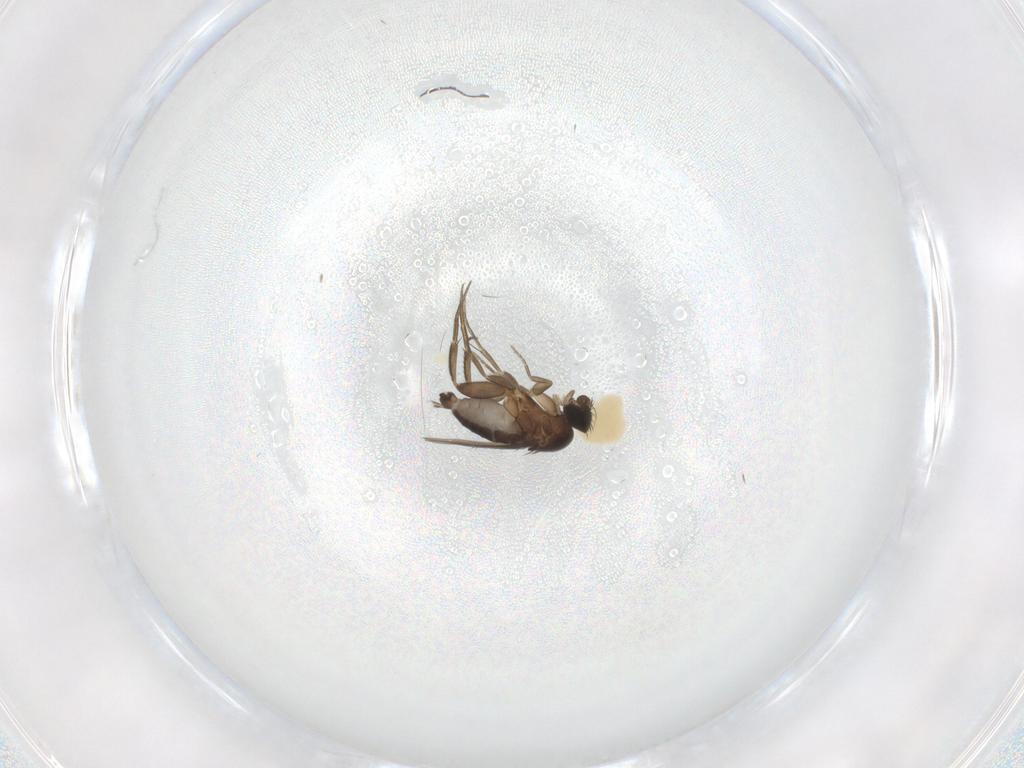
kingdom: Animalia
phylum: Arthropoda
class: Insecta
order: Diptera
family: Phoridae
